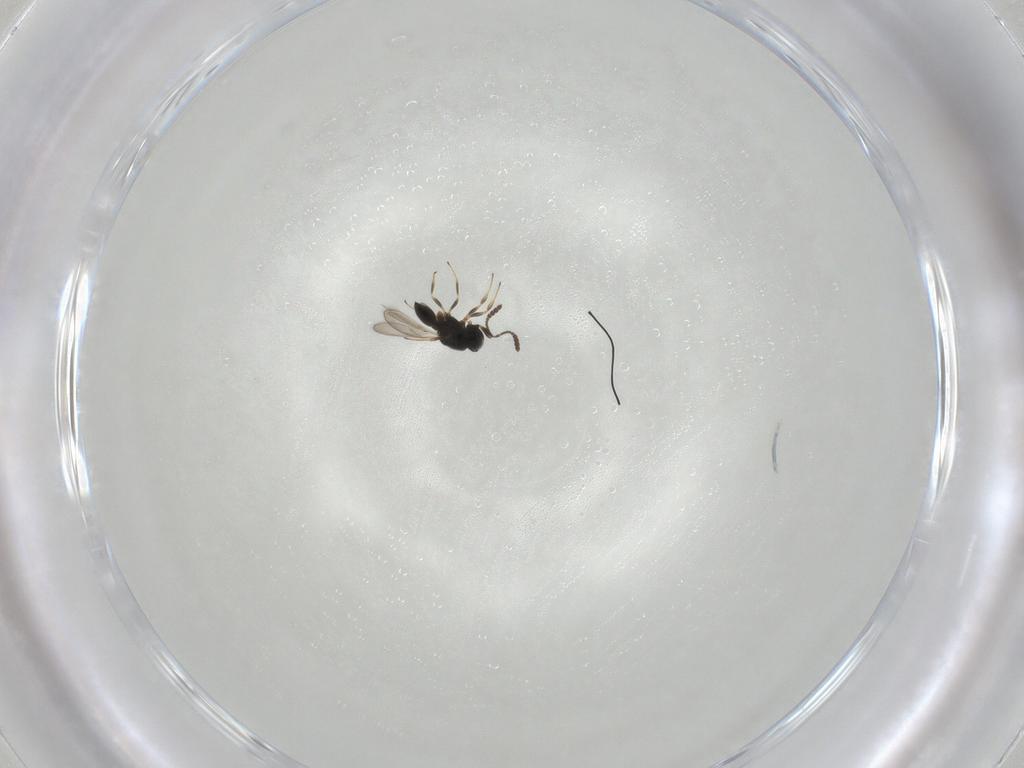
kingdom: Animalia
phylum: Arthropoda
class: Insecta
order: Hymenoptera
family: Scelionidae
